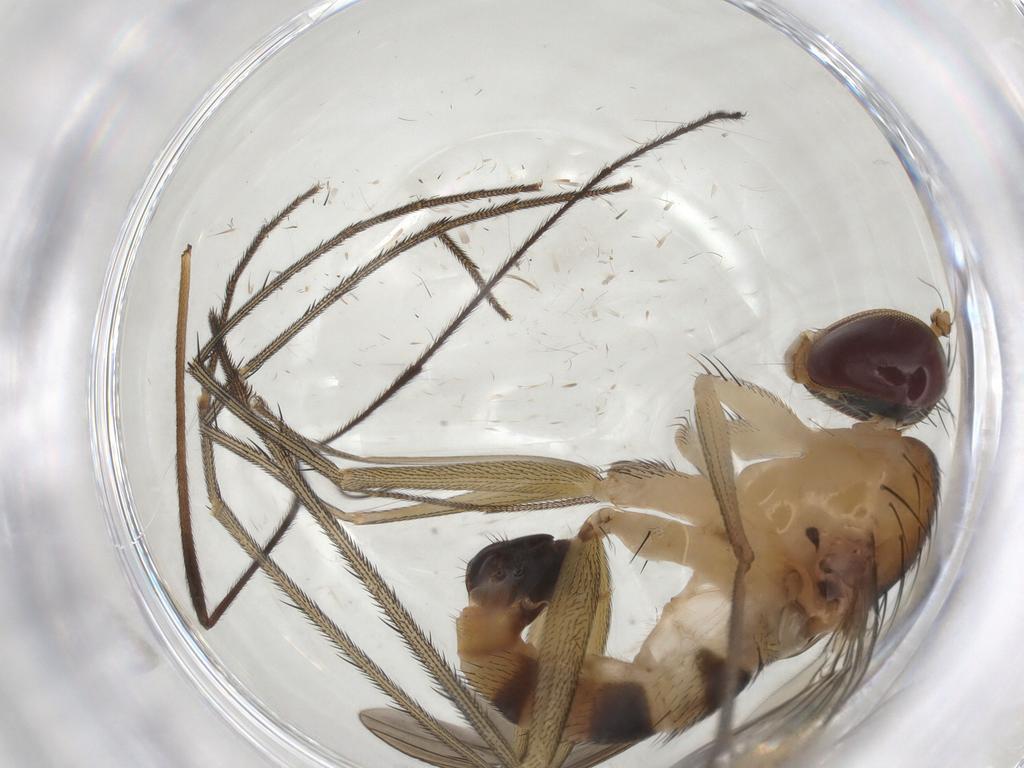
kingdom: Animalia
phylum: Arthropoda
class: Insecta
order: Diptera
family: Dolichopodidae
